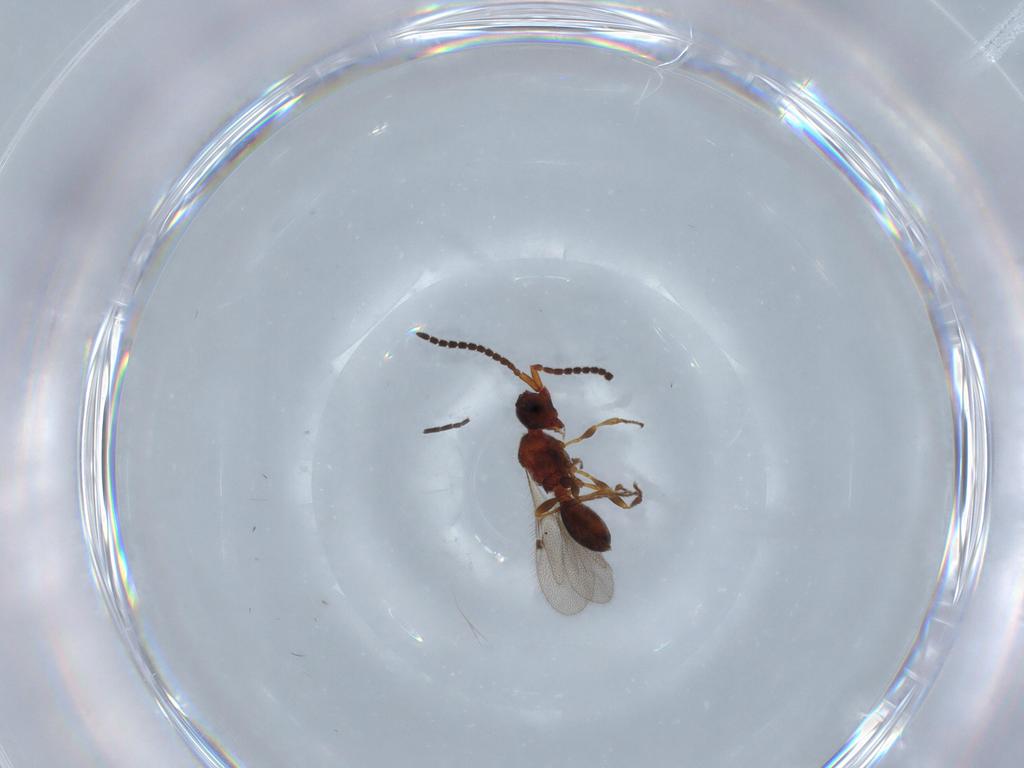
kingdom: Animalia
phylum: Arthropoda
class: Insecta
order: Hymenoptera
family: Diapriidae
